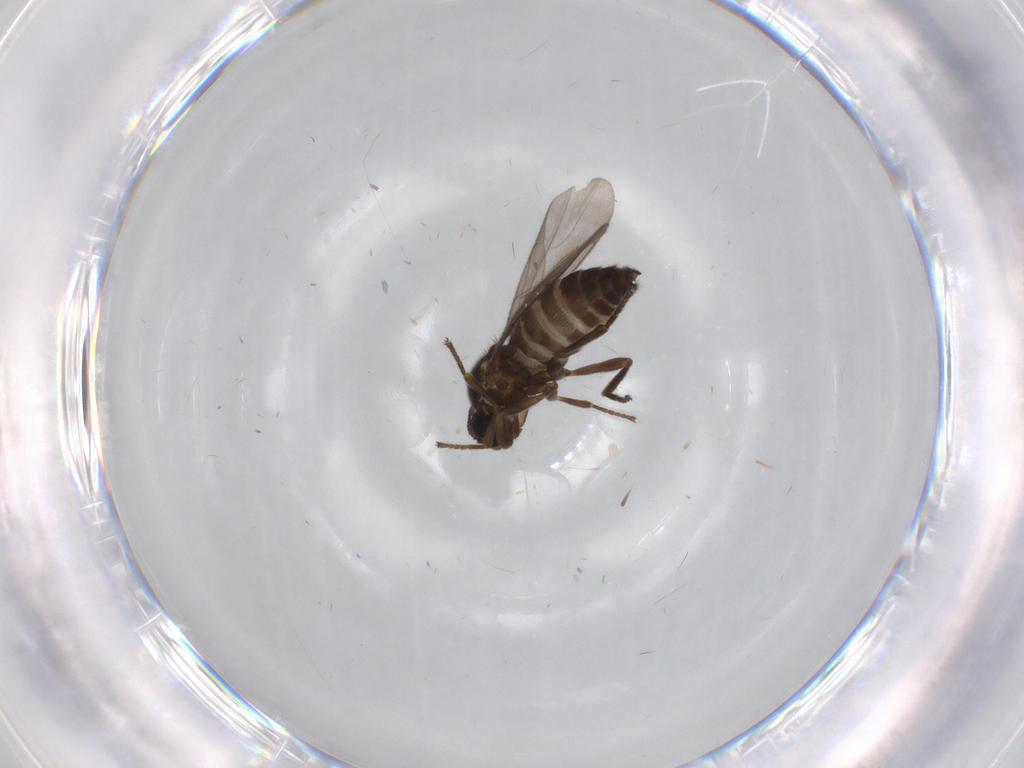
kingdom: Animalia
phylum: Arthropoda
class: Insecta
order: Diptera
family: Scatopsidae
